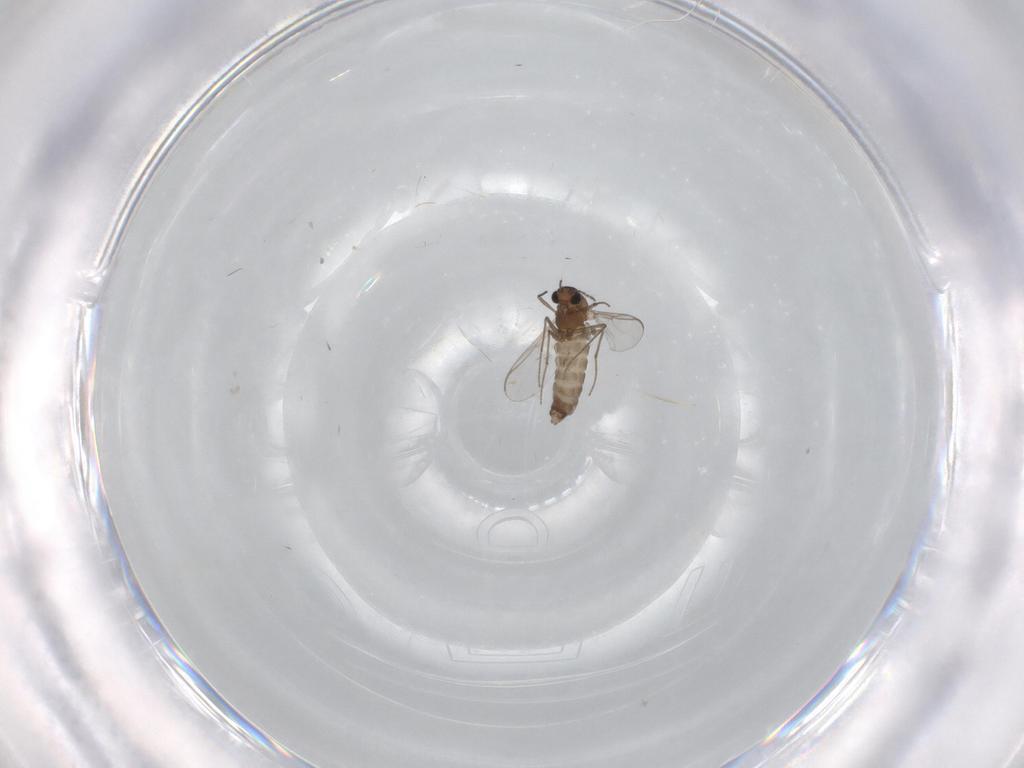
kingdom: Animalia
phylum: Arthropoda
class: Insecta
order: Diptera
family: Chironomidae
